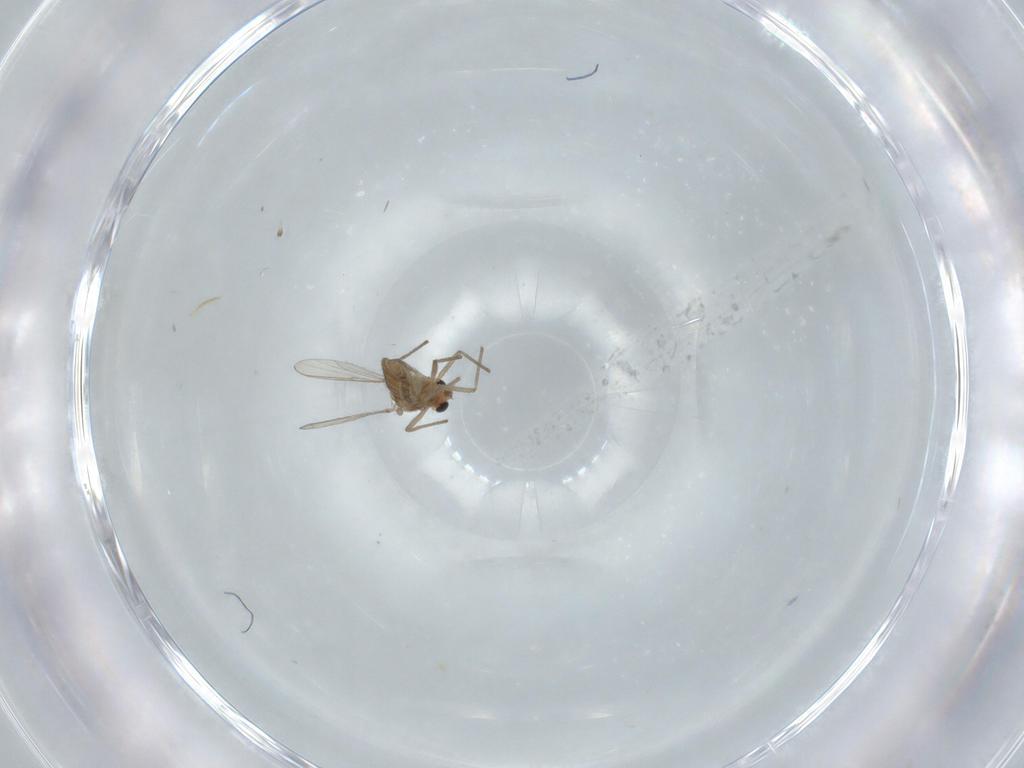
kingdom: Animalia
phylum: Arthropoda
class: Insecta
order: Diptera
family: Chironomidae
